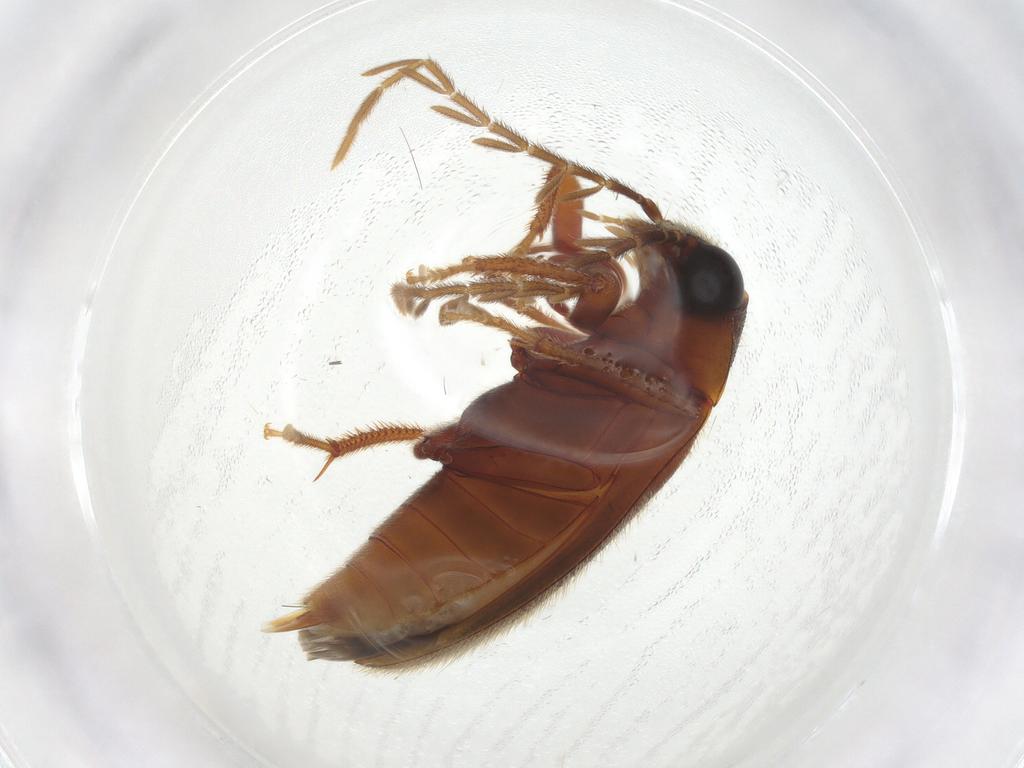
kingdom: Animalia
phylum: Arthropoda
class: Insecta
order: Coleoptera
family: Ptilodactylidae
